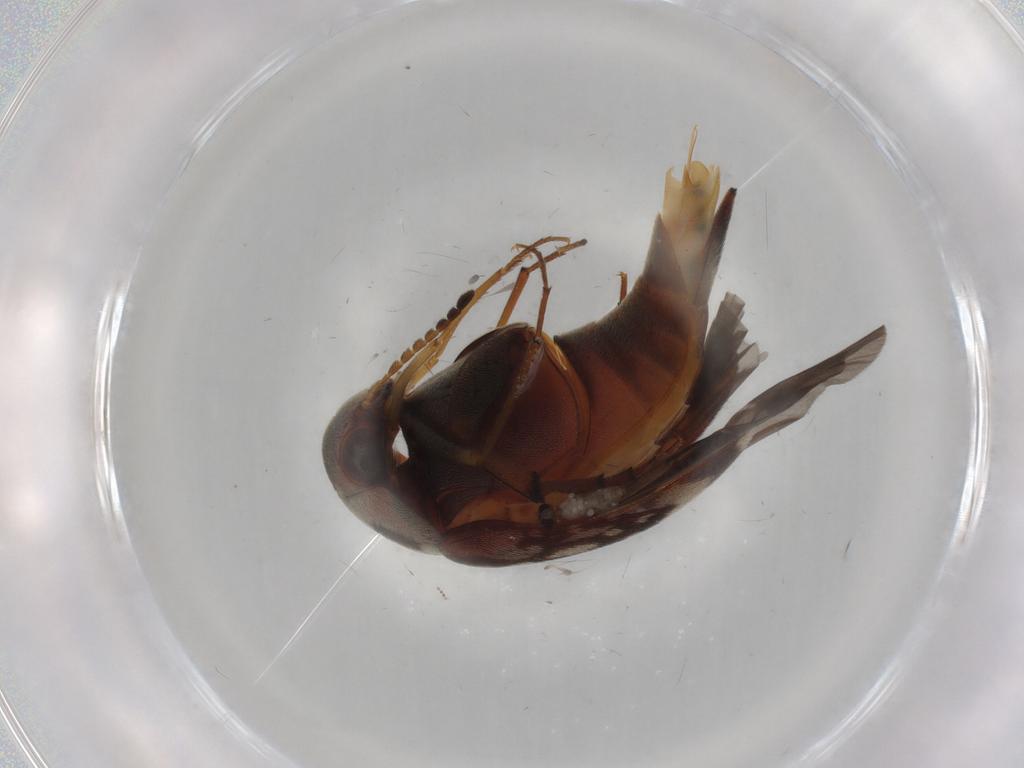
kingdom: Animalia
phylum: Arthropoda
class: Insecta
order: Coleoptera
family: Mordellidae
